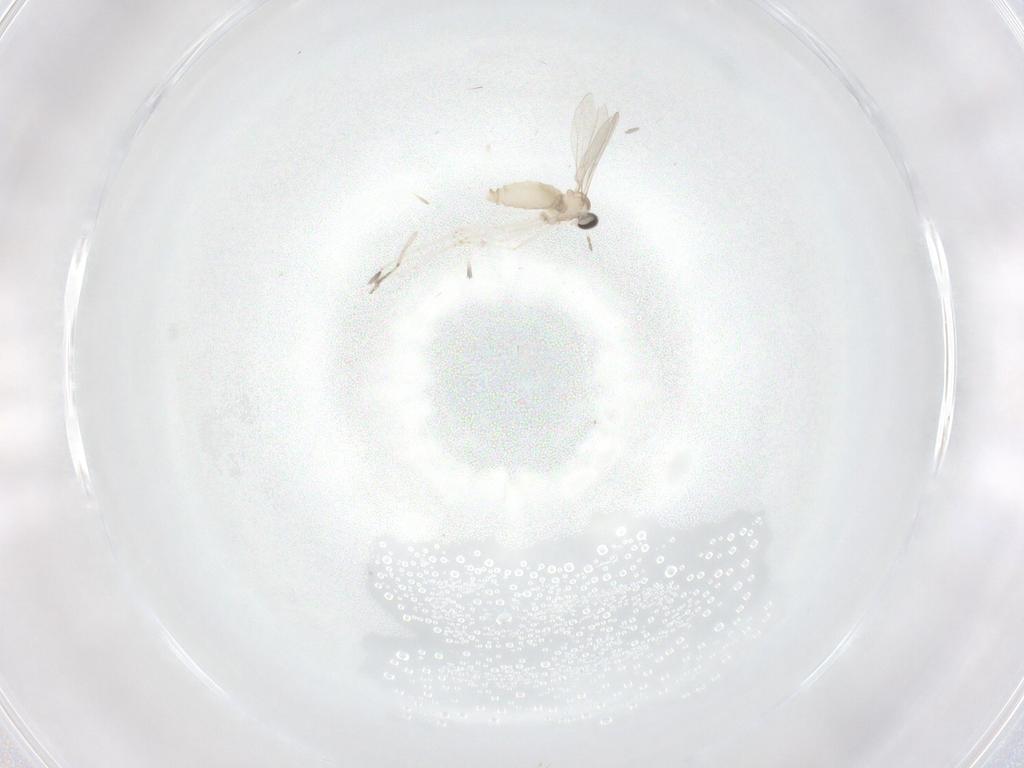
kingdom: Animalia
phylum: Arthropoda
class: Insecta
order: Diptera
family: Cecidomyiidae
